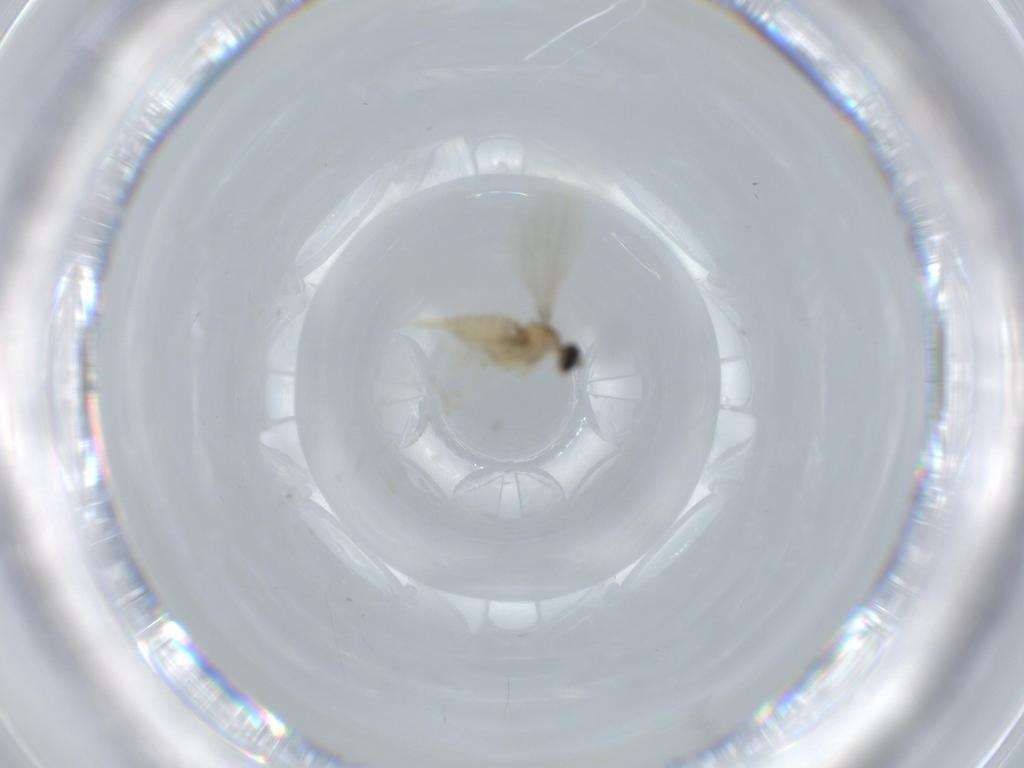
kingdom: Animalia
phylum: Arthropoda
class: Insecta
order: Diptera
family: Cecidomyiidae
